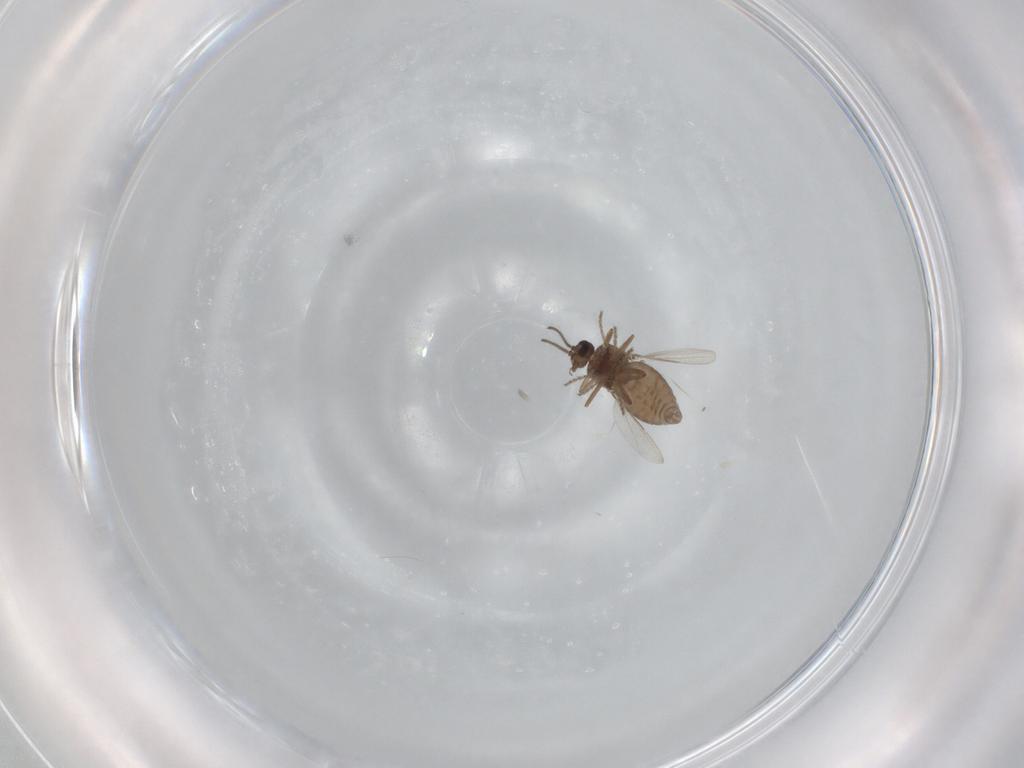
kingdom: Animalia
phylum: Arthropoda
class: Insecta
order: Diptera
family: Ceratopogonidae
